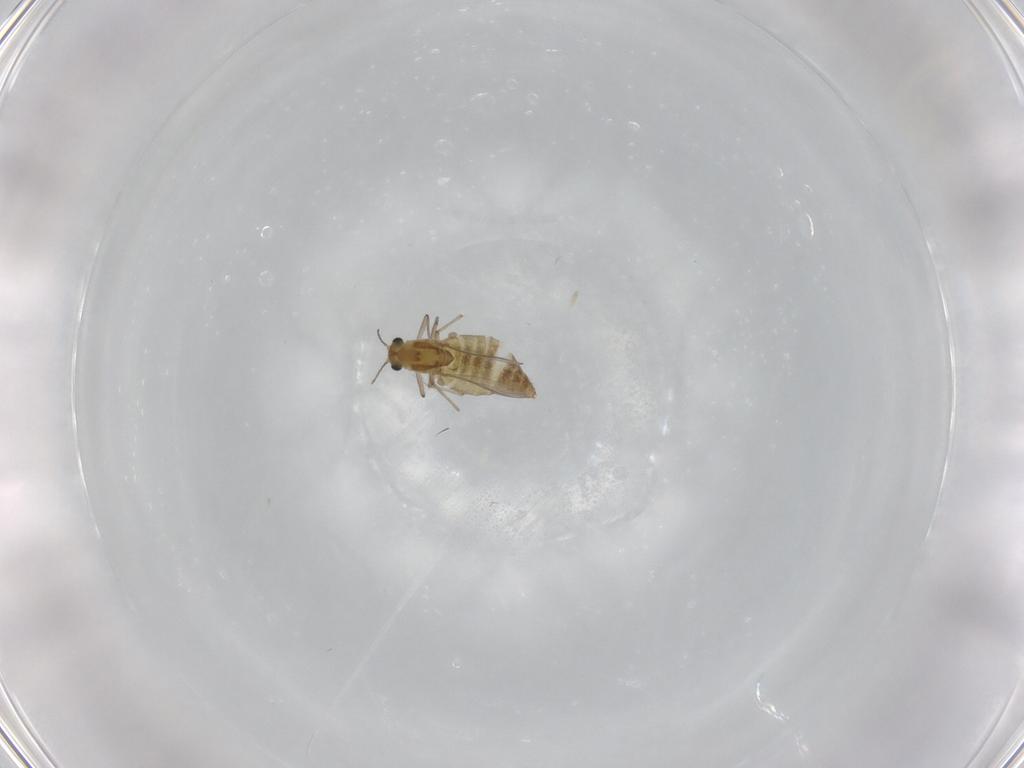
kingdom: Animalia
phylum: Arthropoda
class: Insecta
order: Diptera
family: Chironomidae
